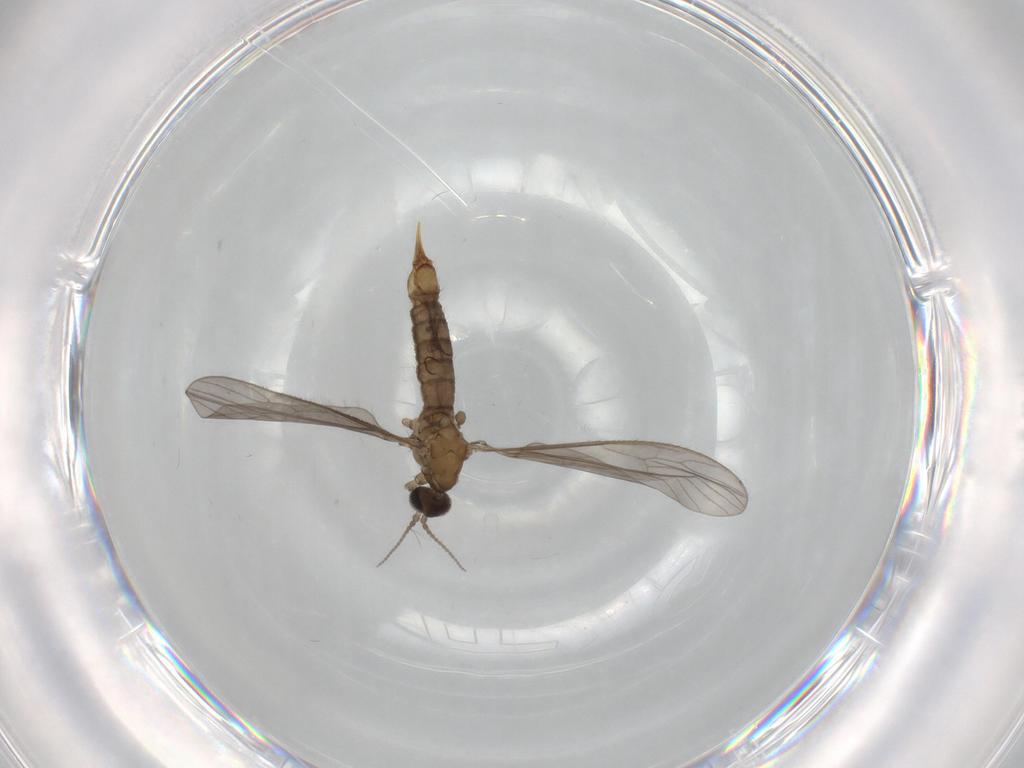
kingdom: Animalia
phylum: Arthropoda
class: Insecta
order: Diptera
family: Limoniidae
